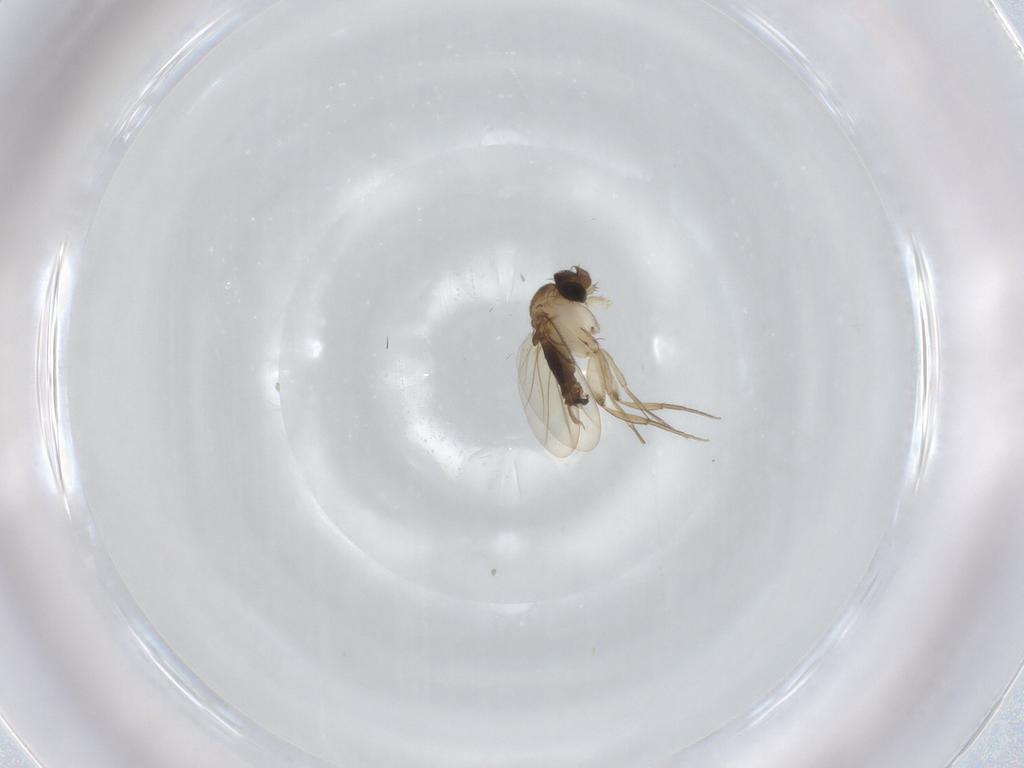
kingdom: Animalia
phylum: Arthropoda
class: Insecta
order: Diptera
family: Phoridae
